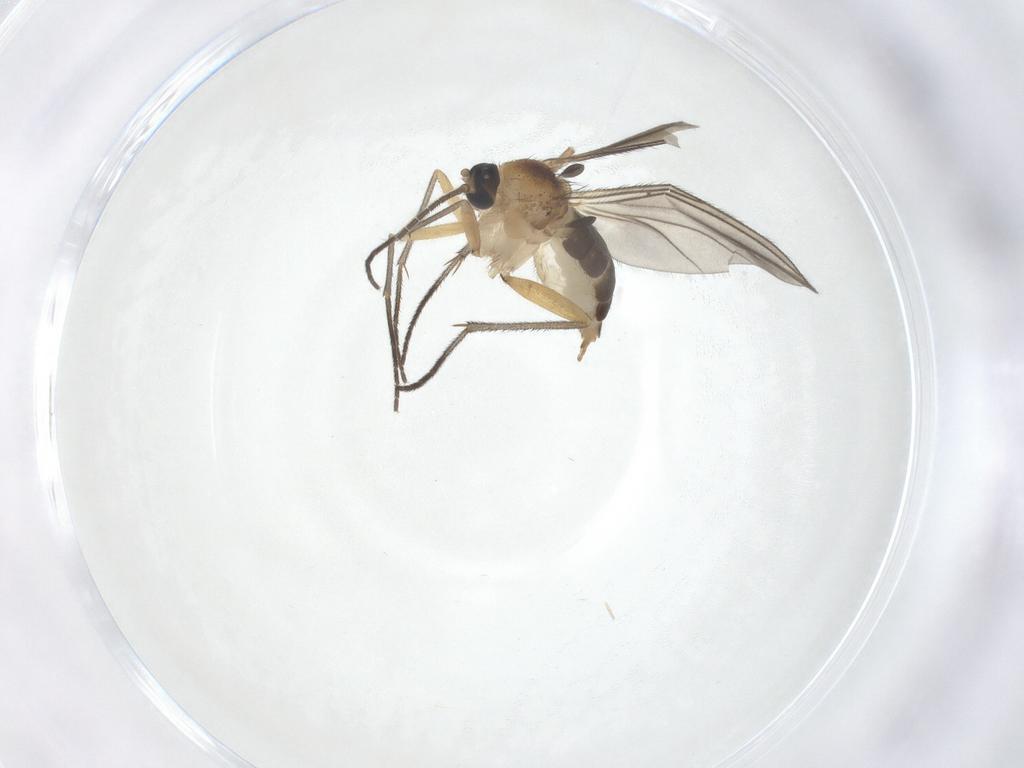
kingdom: Animalia
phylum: Arthropoda
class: Insecta
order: Diptera
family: Sciaridae
